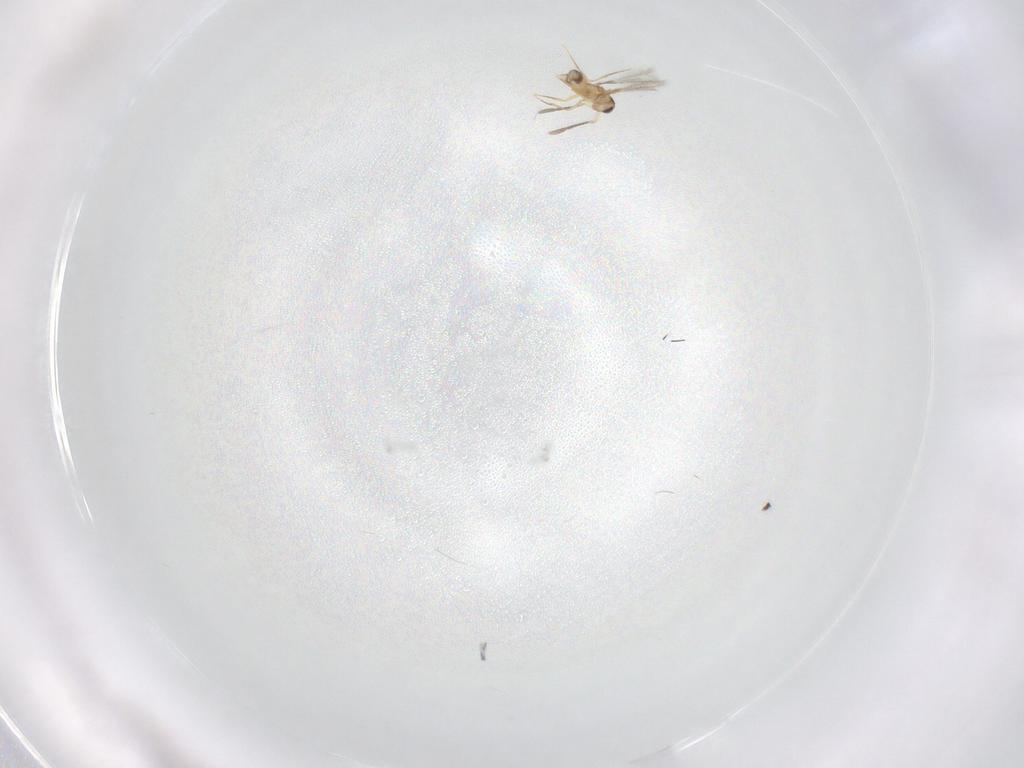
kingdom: Animalia
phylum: Arthropoda
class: Insecta
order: Hymenoptera
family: Mymaridae
